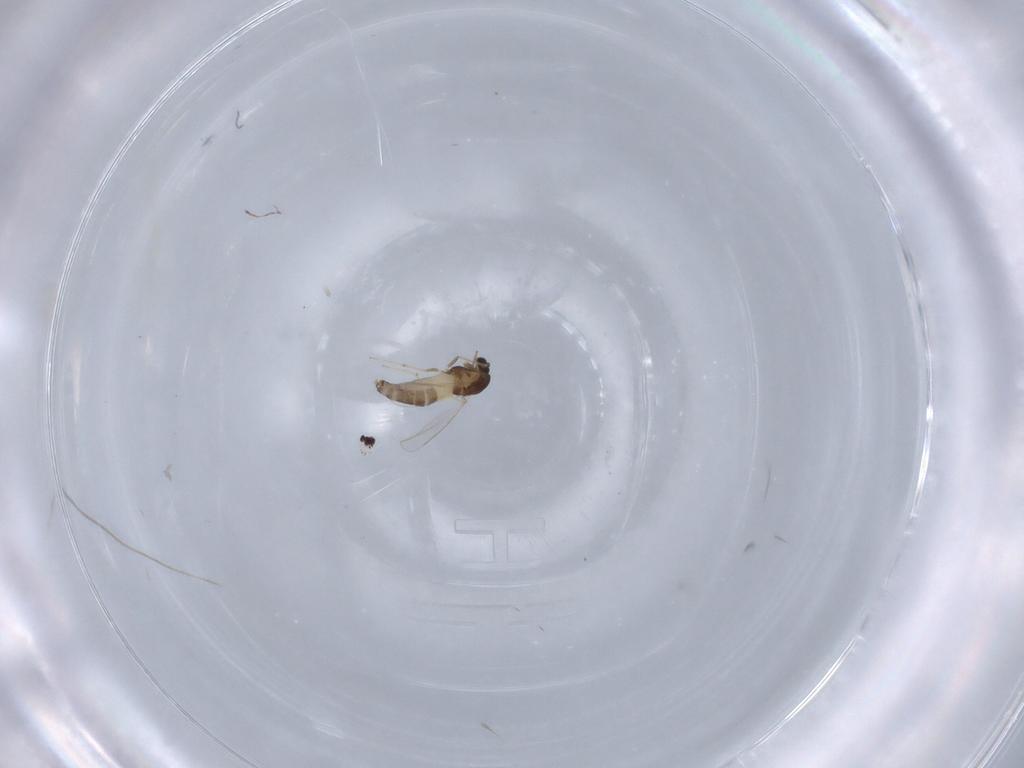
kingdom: Animalia
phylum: Arthropoda
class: Insecta
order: Diptera
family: Chironomidae
